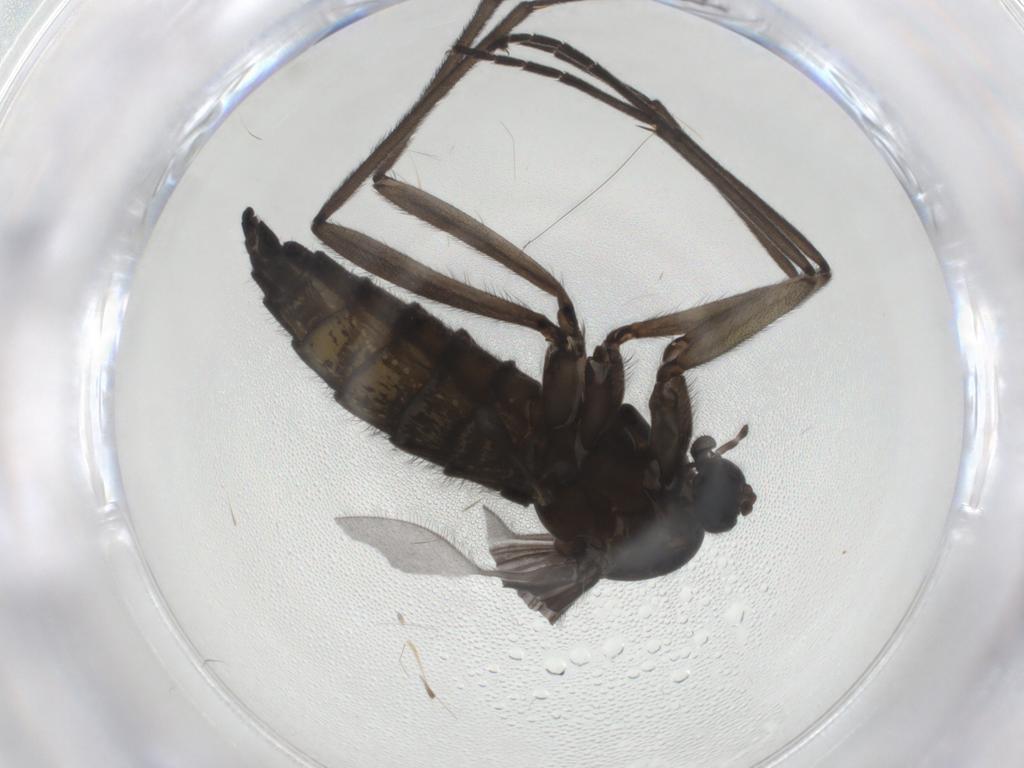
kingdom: Animalia
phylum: Arthropoda
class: Insecta
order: Diptera
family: Sciaridae
